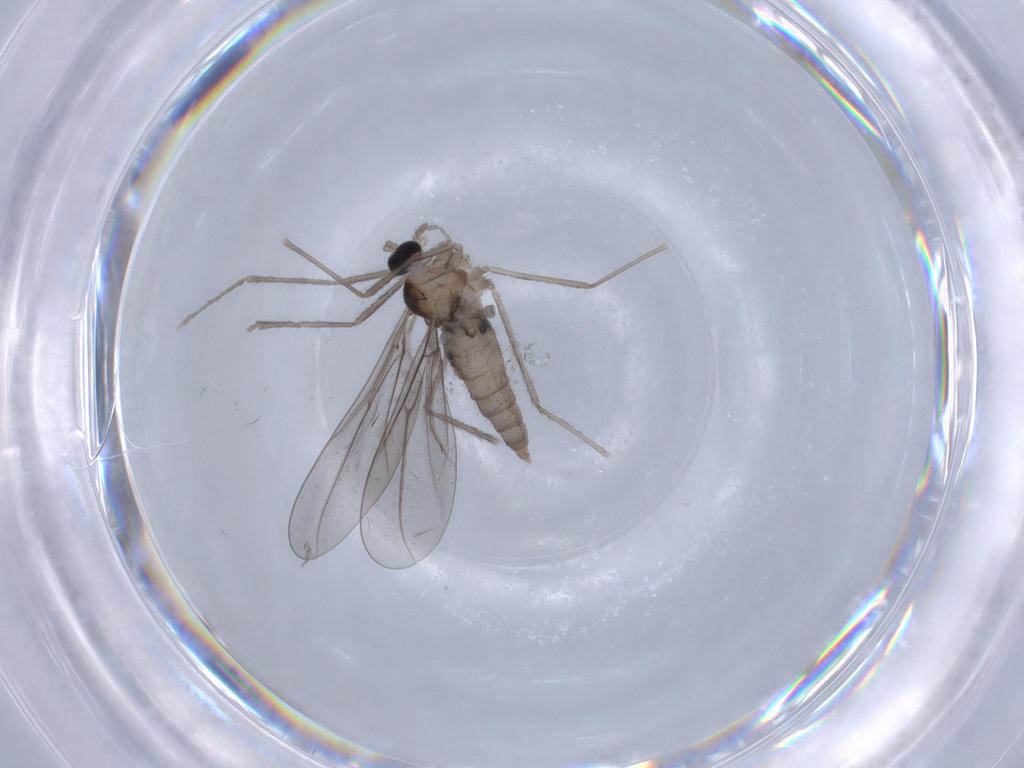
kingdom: Animalia
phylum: Arthropoda
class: Insecta
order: Diptera
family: Cecidomyiidae
